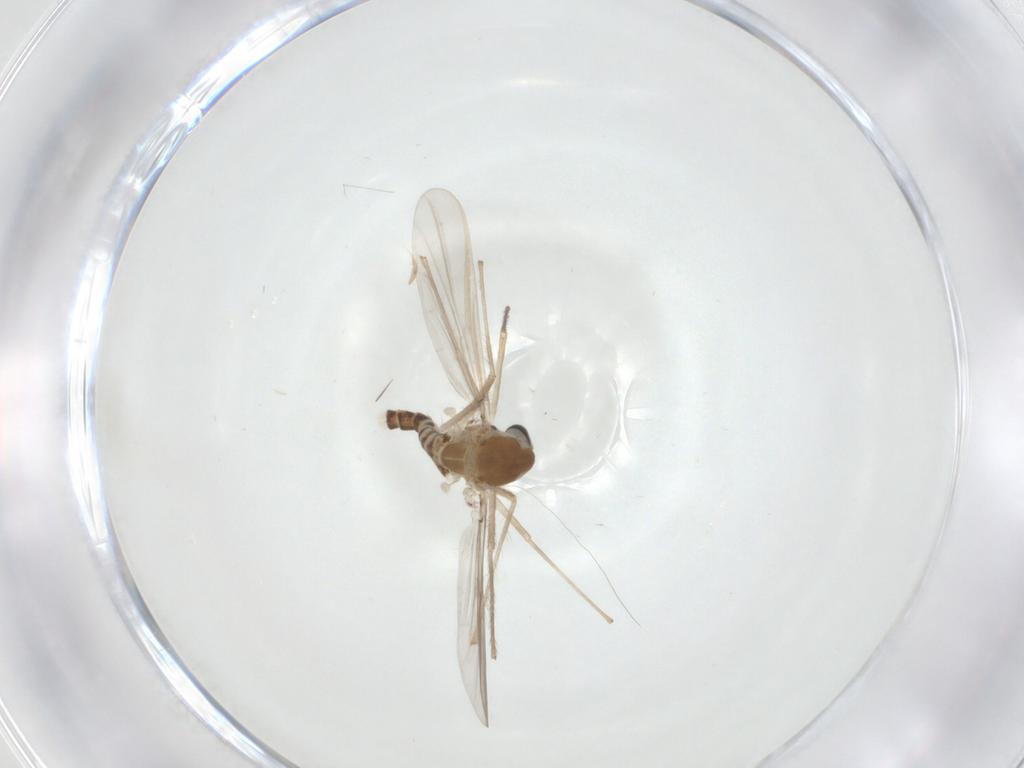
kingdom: Animalia
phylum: Arthropoda
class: Insecta
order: Diptera
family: Chironomidae
